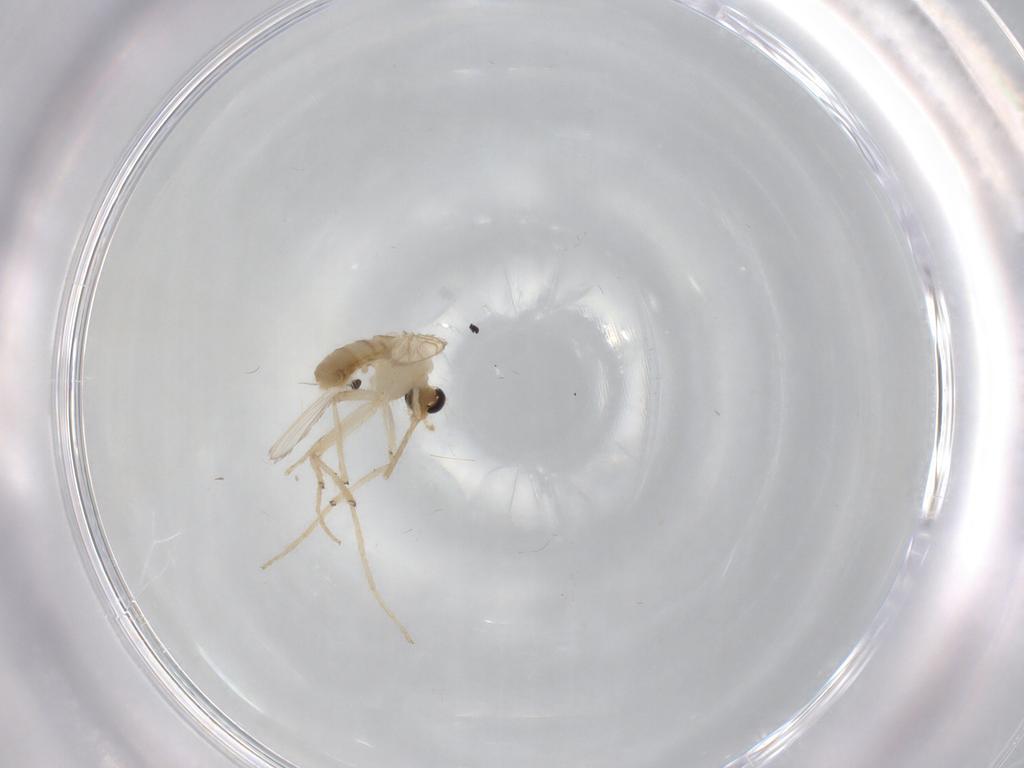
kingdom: Animalia
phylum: Arthropoda
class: Insecta
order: Diptera
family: Chironomidae
